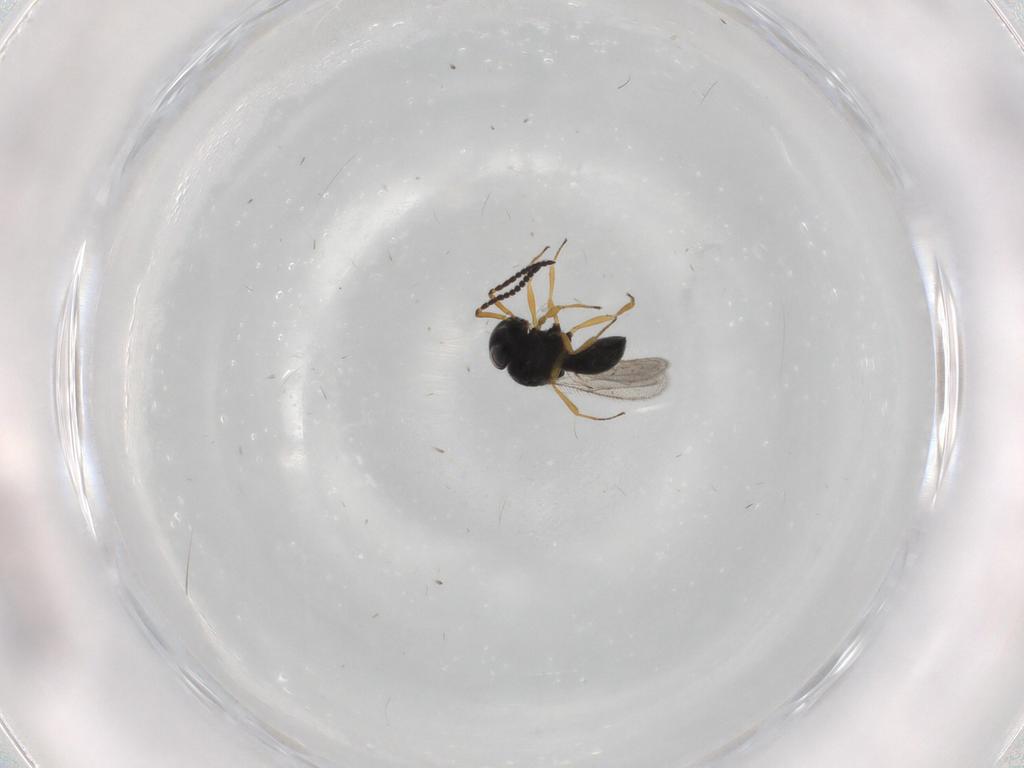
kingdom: Animalia
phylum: Arthropoda
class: Insecta
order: Hymenoptera
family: Scelionidae
